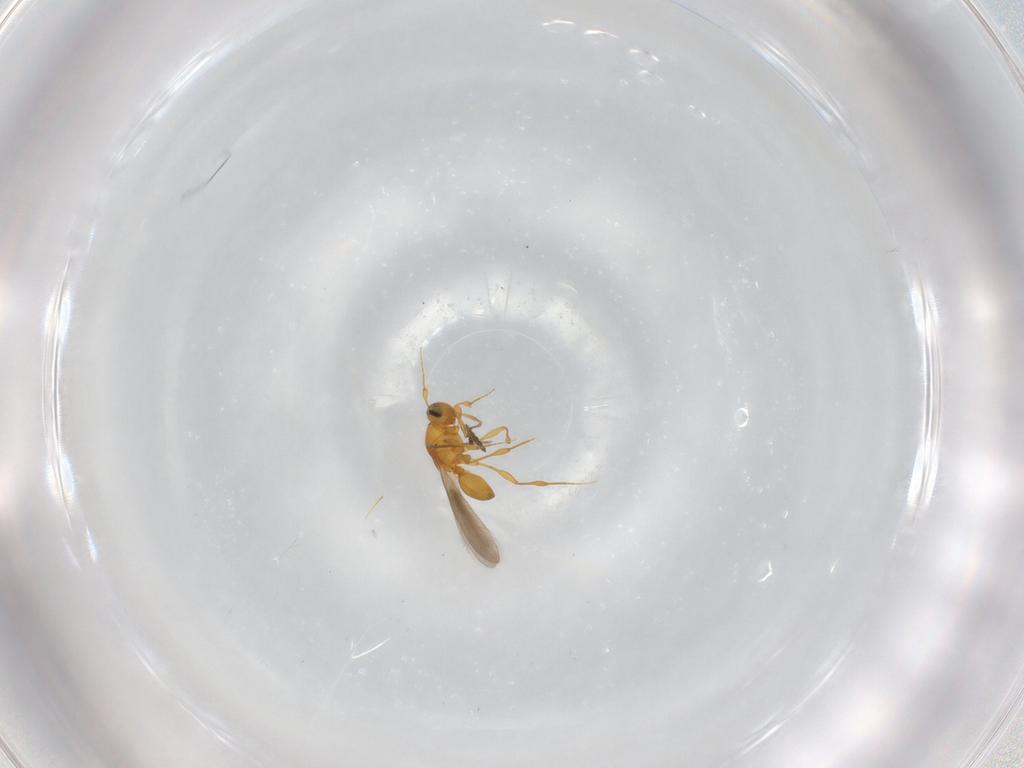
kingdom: Animalia
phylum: Arthropoda
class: Insecta
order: Hymenoptera
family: Platygastridae
